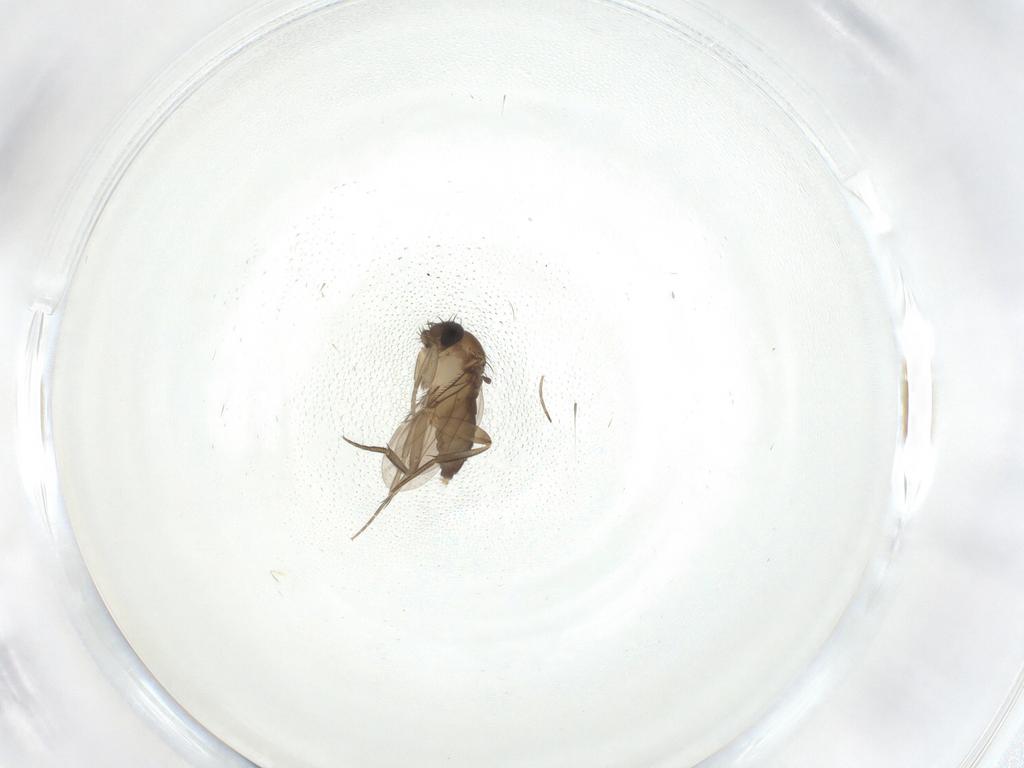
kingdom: Animalia
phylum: Arthropoda
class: Insecta
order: Diptera
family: Phoridae
